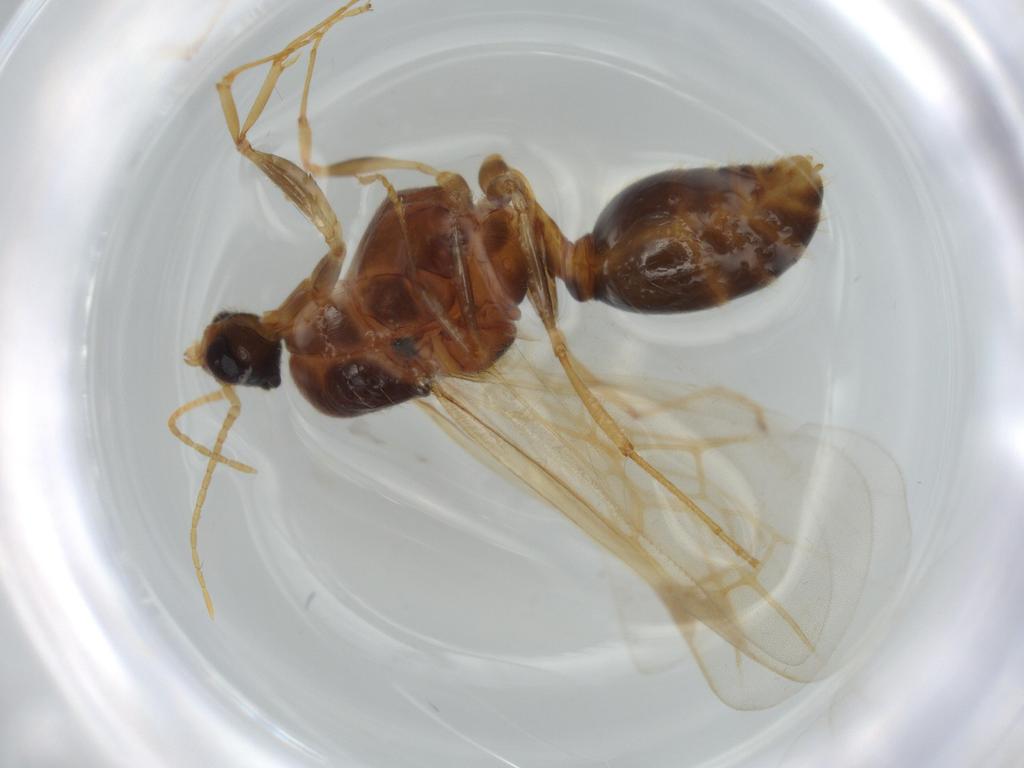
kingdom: Animalia
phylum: Arthropoda
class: Insecta
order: Hymenoptera
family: Formicidae
